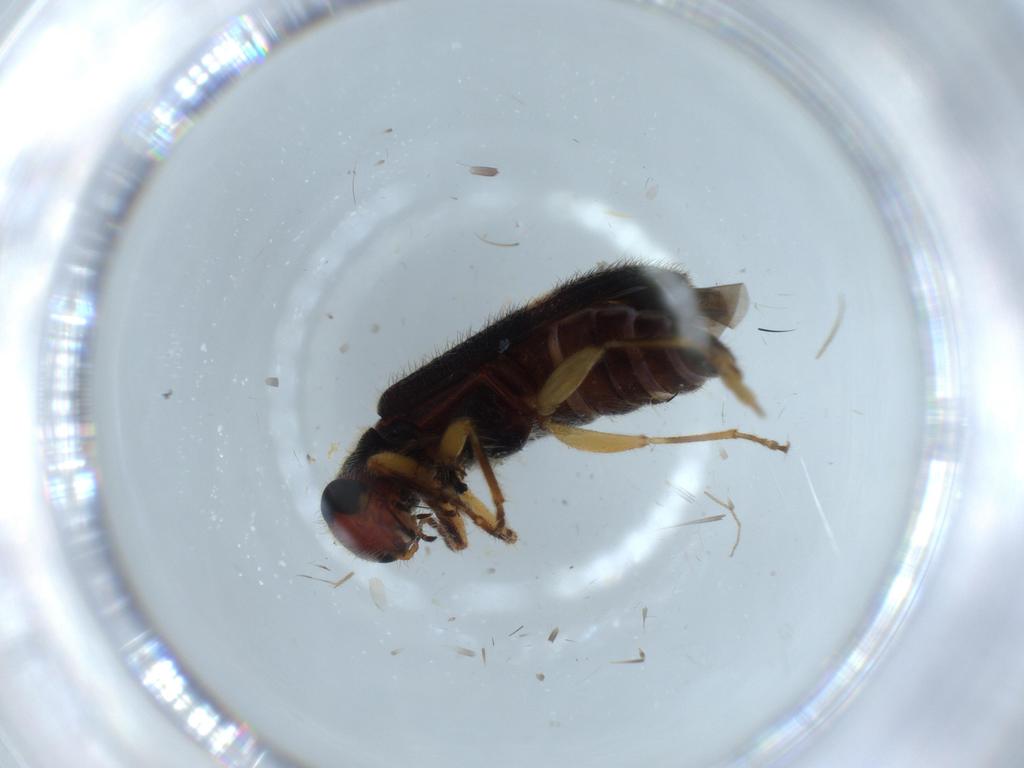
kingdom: Animalia
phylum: Arthropoda
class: Insecta
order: Coleoptera
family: Cleridae
